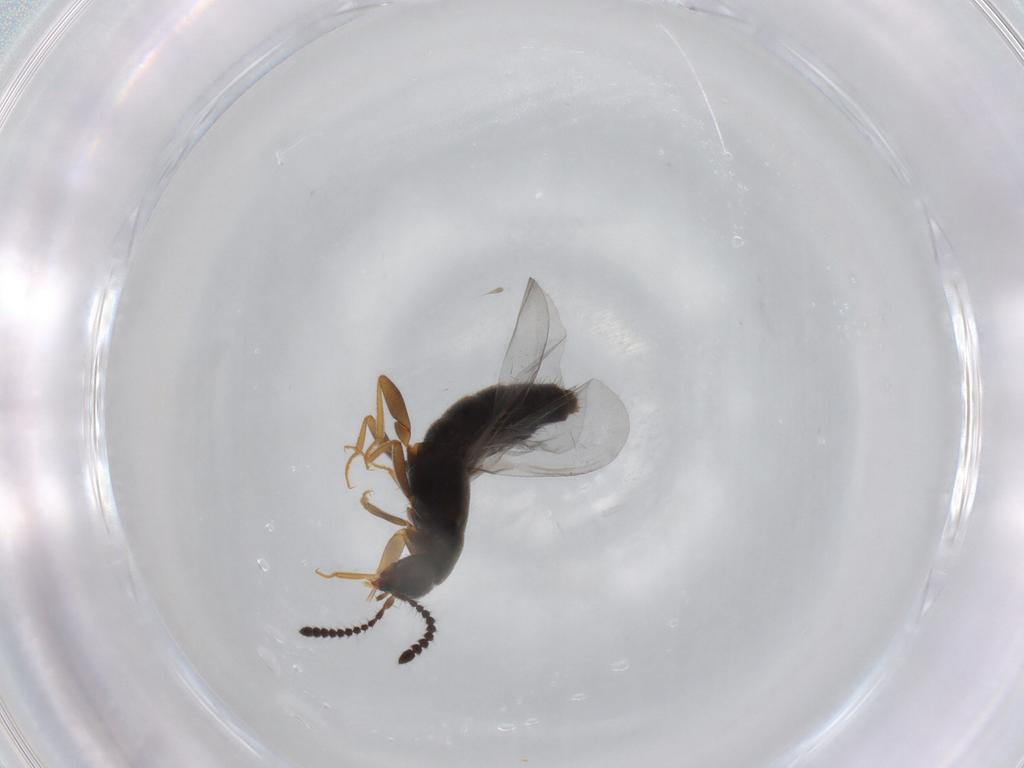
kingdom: Animalia
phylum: Arthropoda
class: Insecta
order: Coleoptera
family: Staphylinidae
